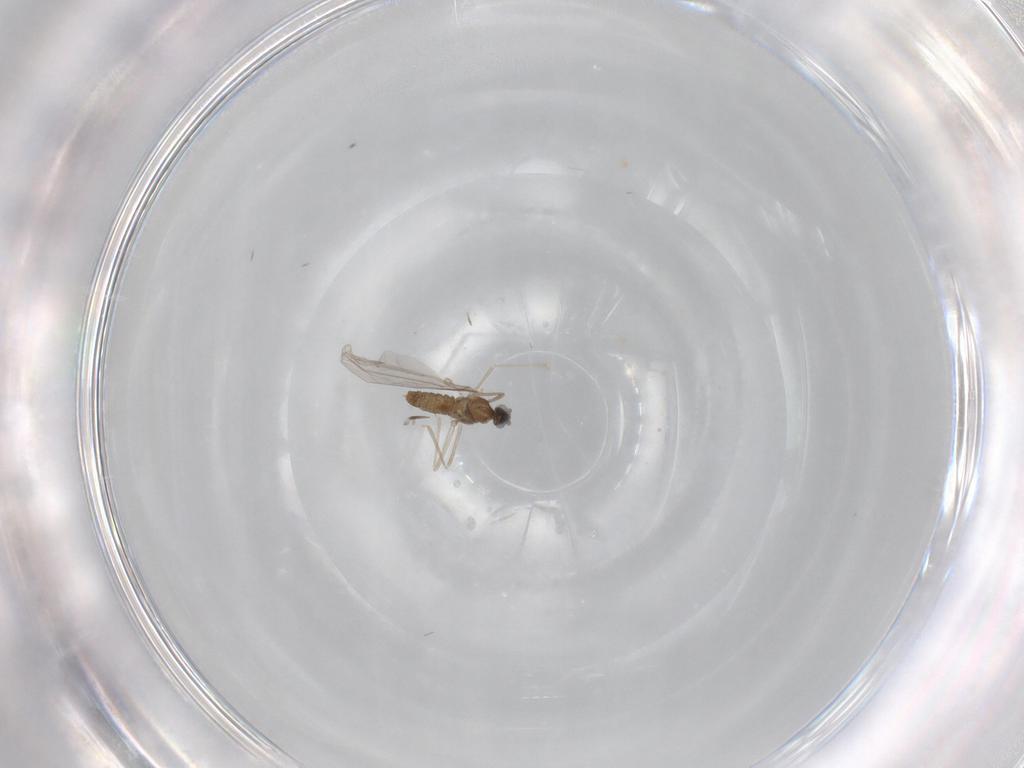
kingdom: Animalia
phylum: Arthropoda
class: Insecta
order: Diptera
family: Cecidomyiidae
